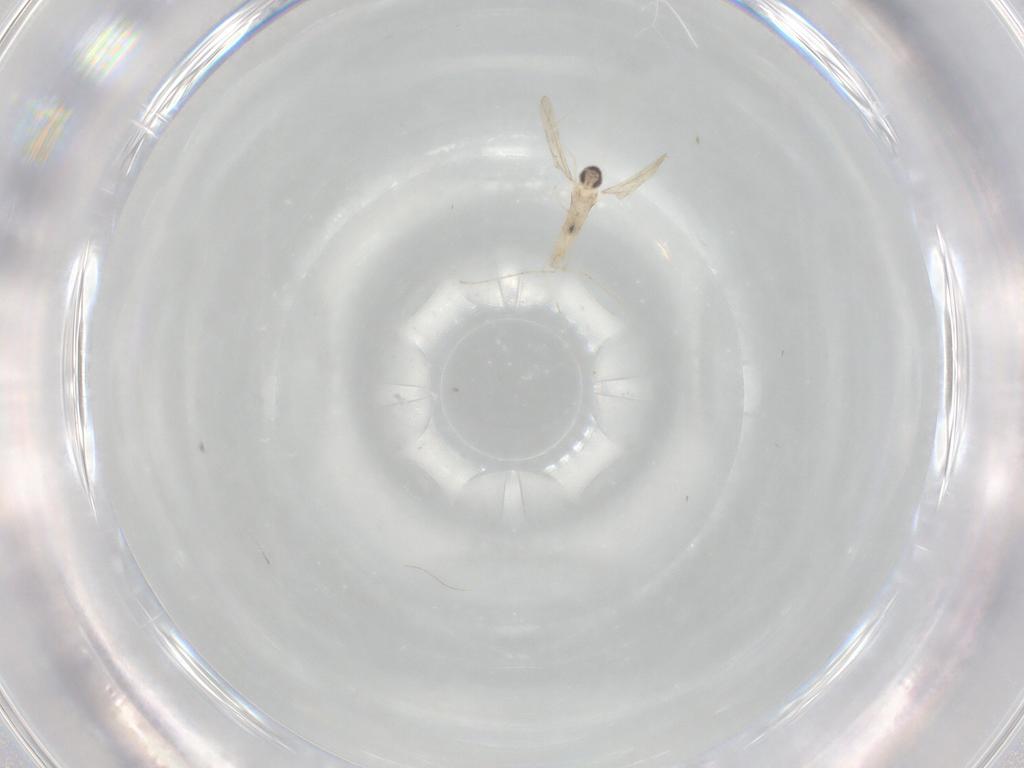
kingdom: Animalia
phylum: Arthropoda
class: Insecta
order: Diptera
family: Cecidomyiidae
